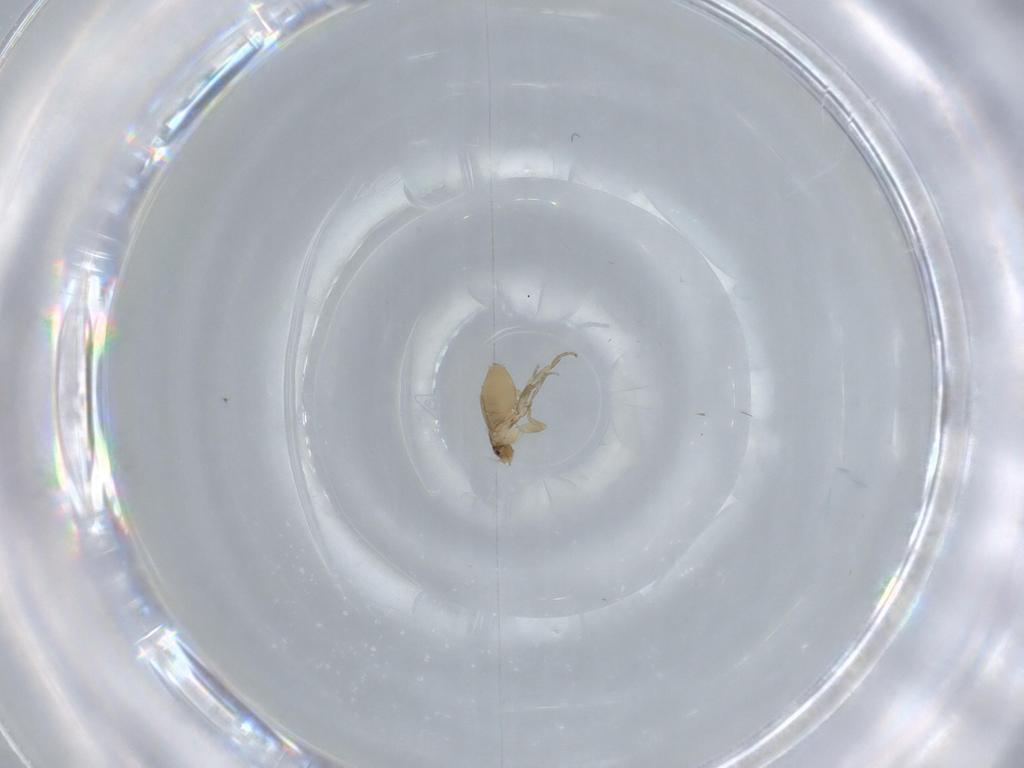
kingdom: Animalia
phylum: Arthropoda
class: Insecta
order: Diptera
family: Phoridae
